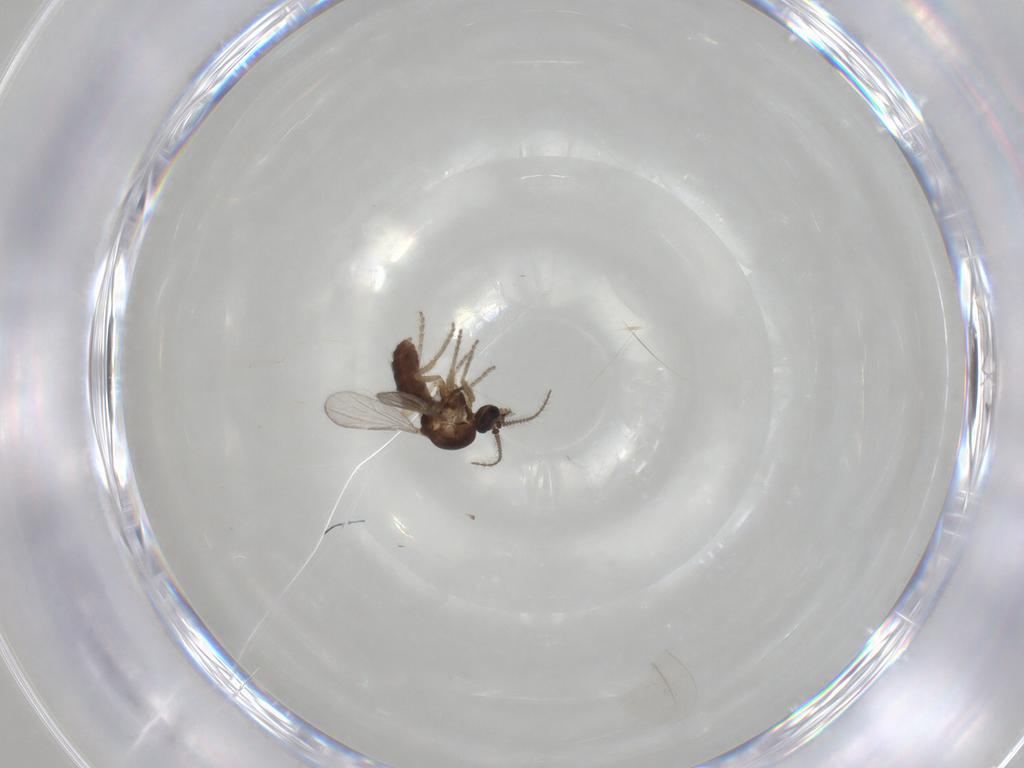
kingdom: Animalia
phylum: Arthropoda
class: Insecta
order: Diptera
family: Ceratopogonidae
